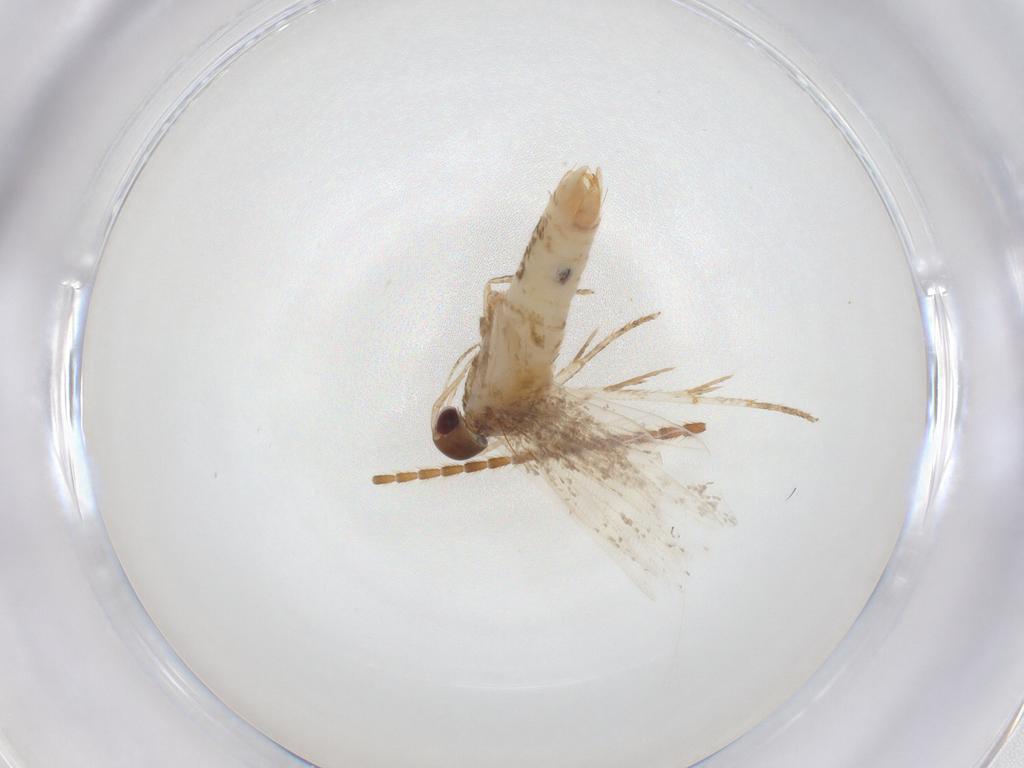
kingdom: Animalia
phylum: Arthropoda
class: Insecta
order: Lepidoptera
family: Gelechiidae
